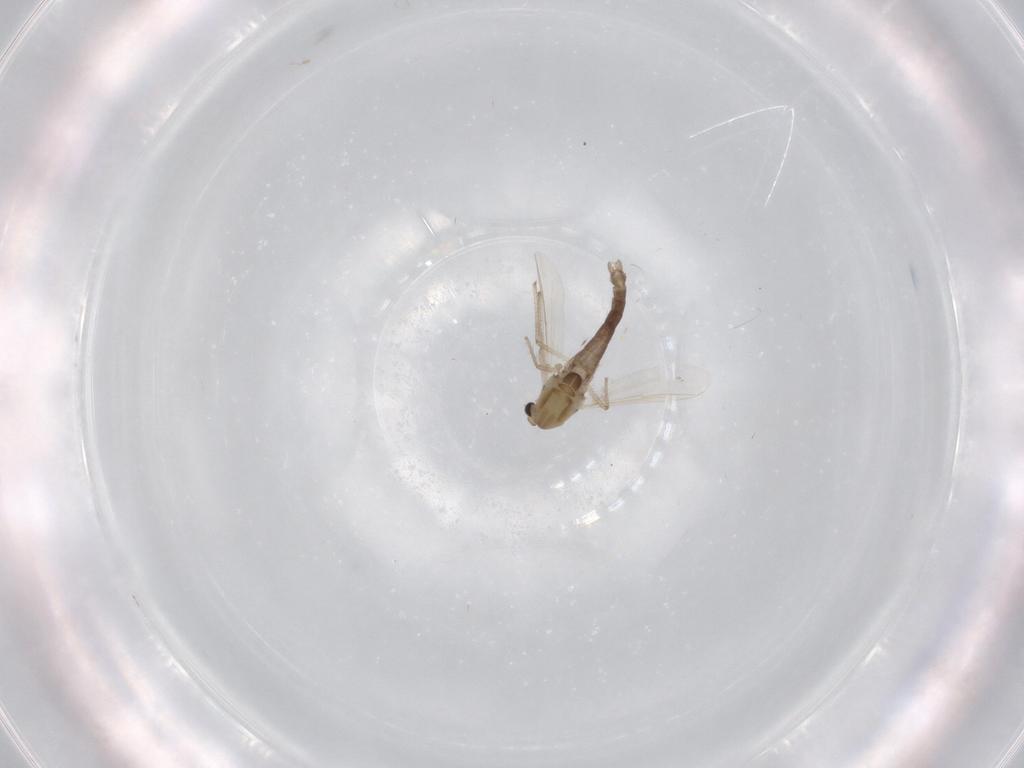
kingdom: Animalia
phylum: Arthropoda
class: Insecta
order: Diptera
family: Chironomidae
